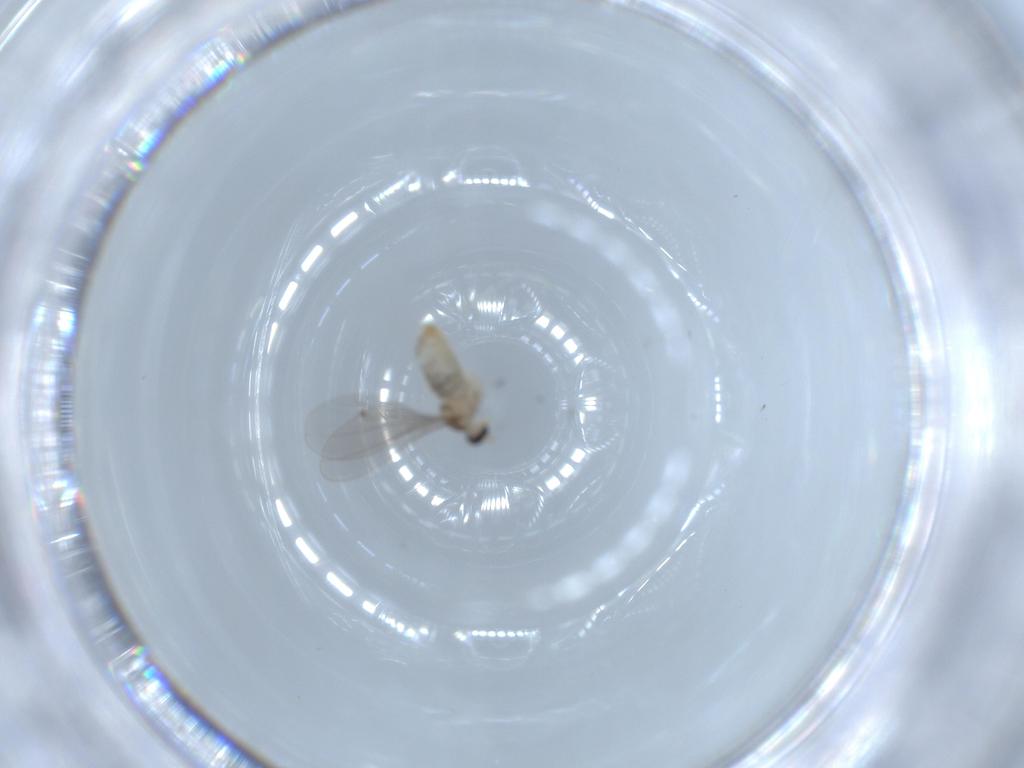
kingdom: Animalia
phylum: Arthropoda
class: Insecta
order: Diptera
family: Cecidomyiidae
